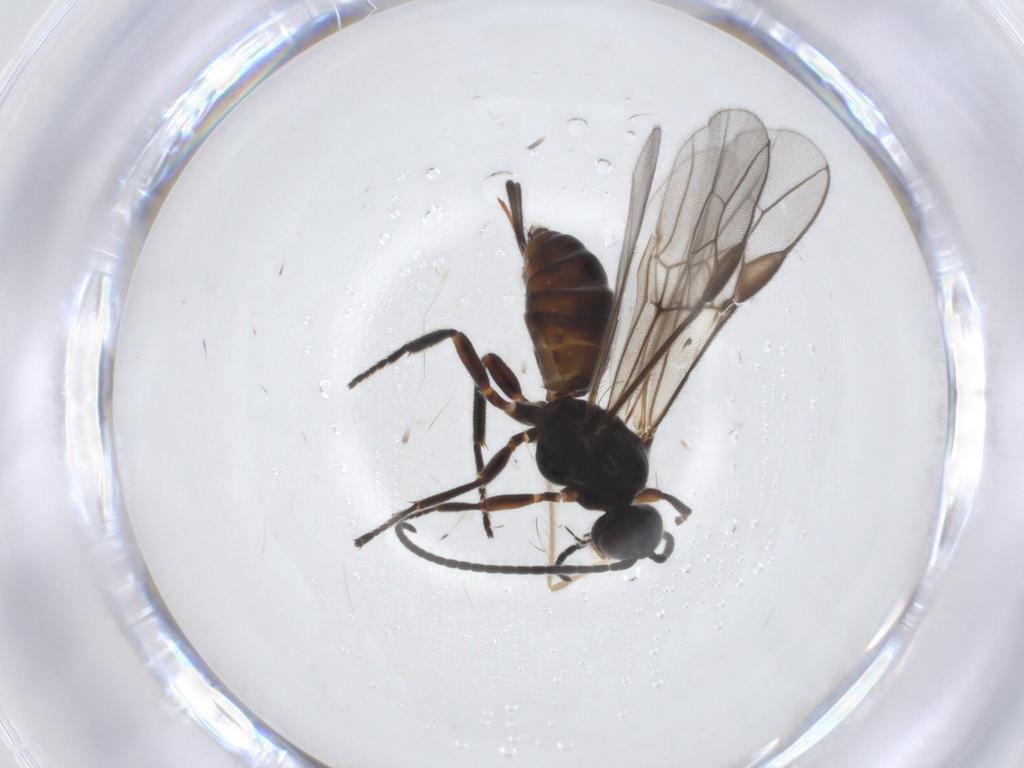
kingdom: Animalia
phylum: Arthropoda
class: Insecta
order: Hymenoptera
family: Braconidae
